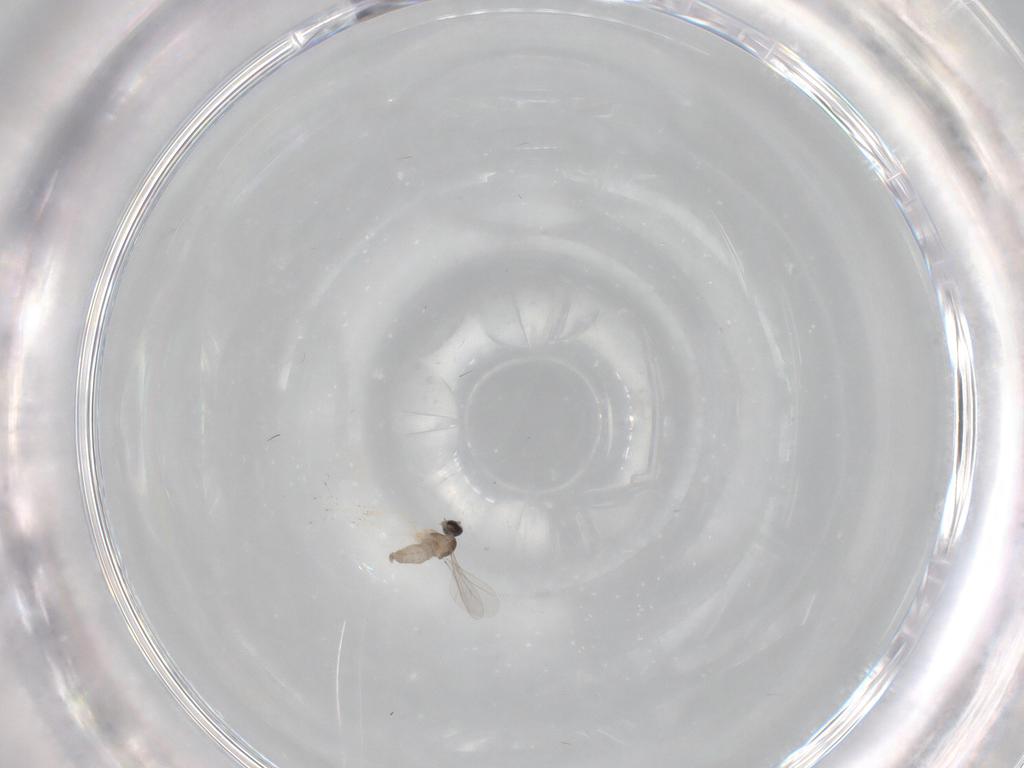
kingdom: Animalia
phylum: Arthropoda
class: Insecta
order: Diptera
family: Cecidomyiidae
